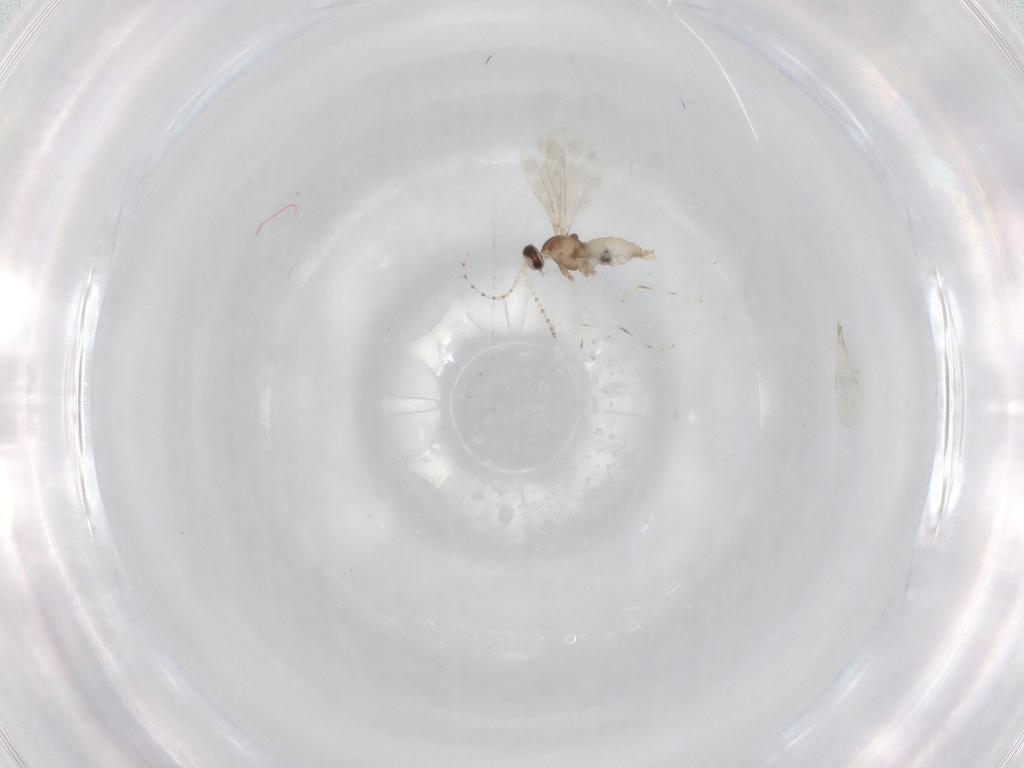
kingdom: Animalia
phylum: Arthropoda
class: Insecta
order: Diptera
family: Cecidomyiidae
